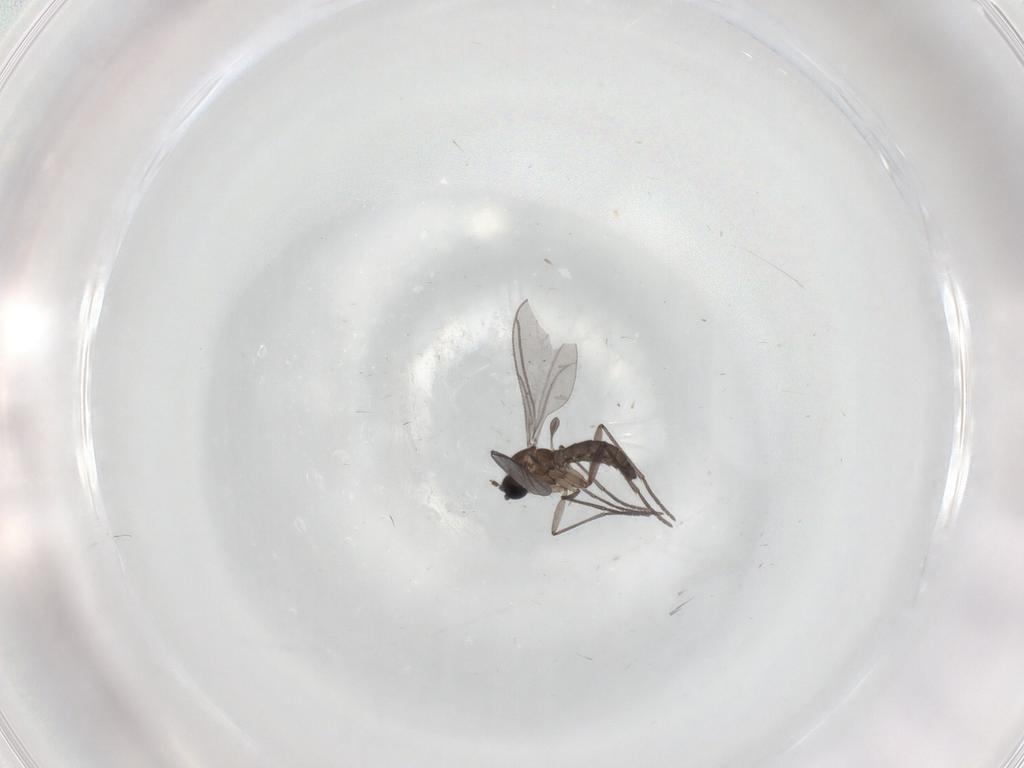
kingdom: Animalia
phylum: Arthropoda
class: Insecta
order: Diptera
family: Sciaridae
